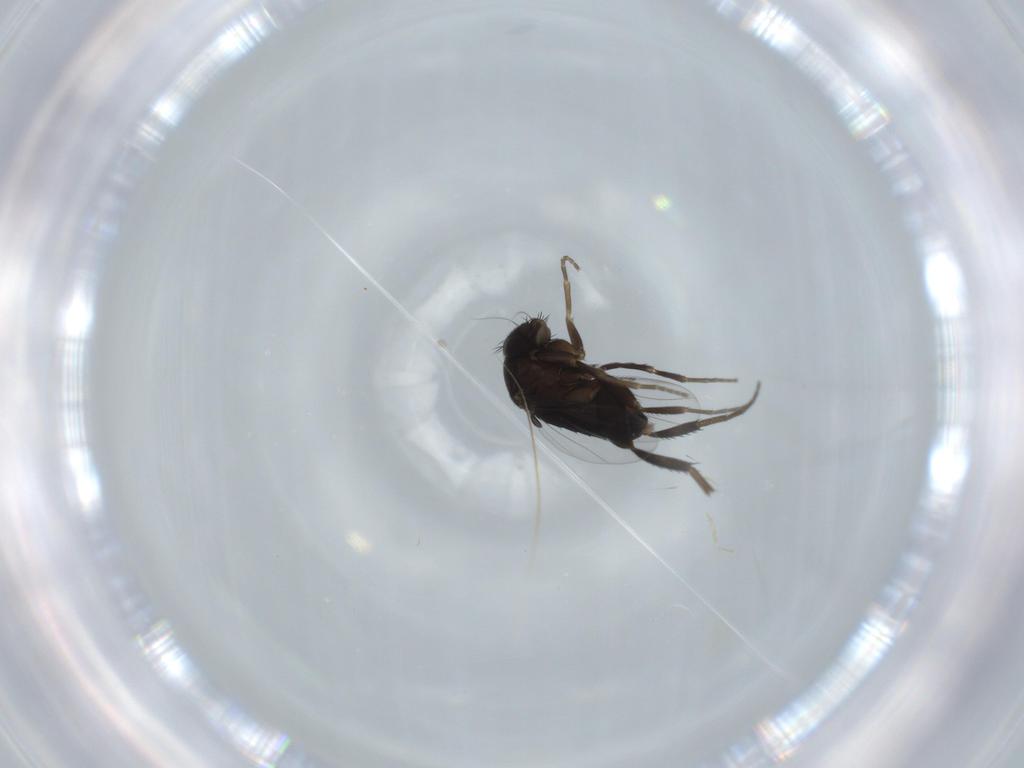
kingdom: Animalia
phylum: Arthropoda
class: Insecta
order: Diptera
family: Phoridae
